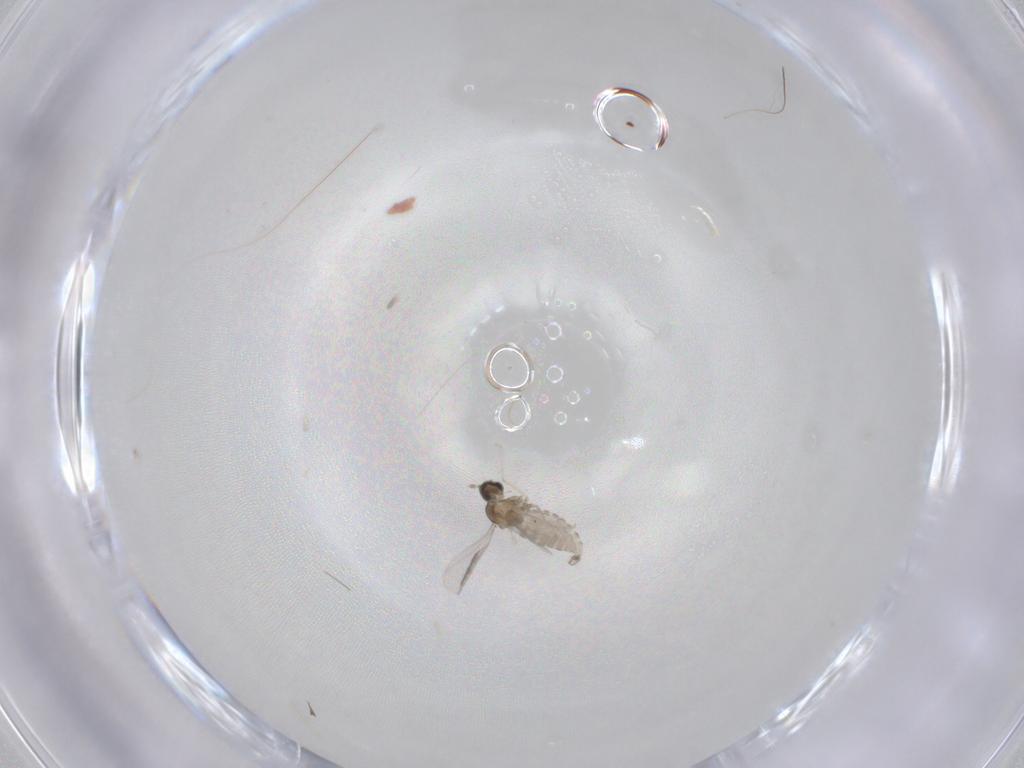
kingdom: Animalia
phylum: Arthropoda
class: Insecta
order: Diptera
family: Cecidomyiidae
